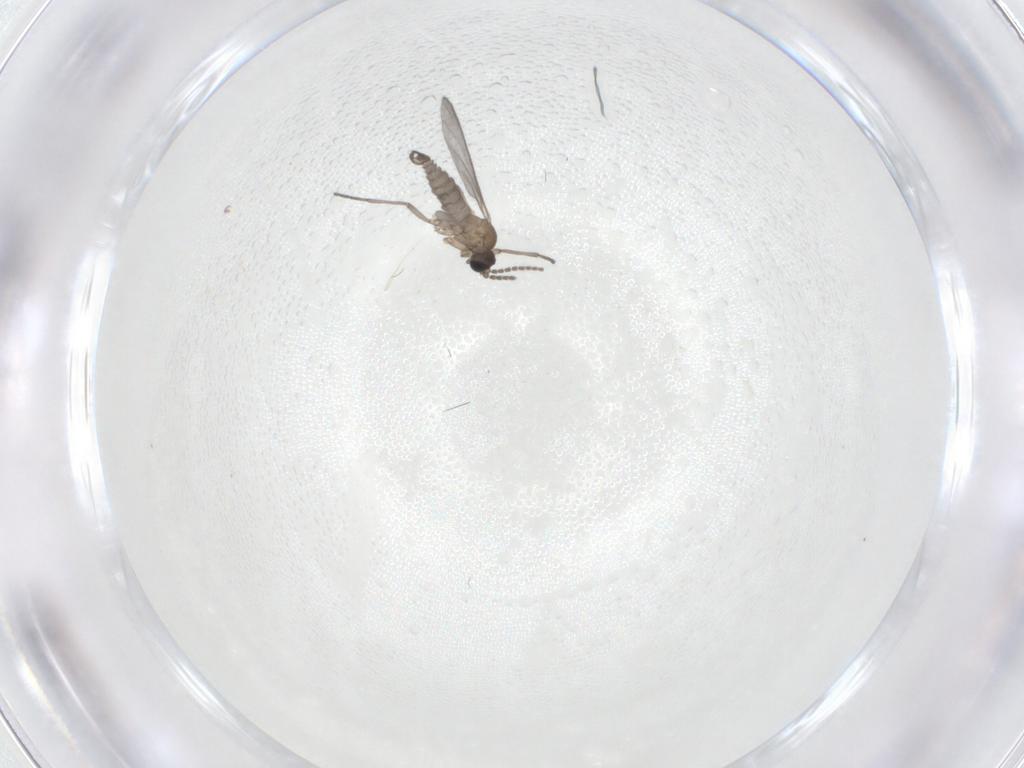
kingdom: Animalia
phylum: Arthropoda
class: Insecta
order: Diptera
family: Sciaridae
